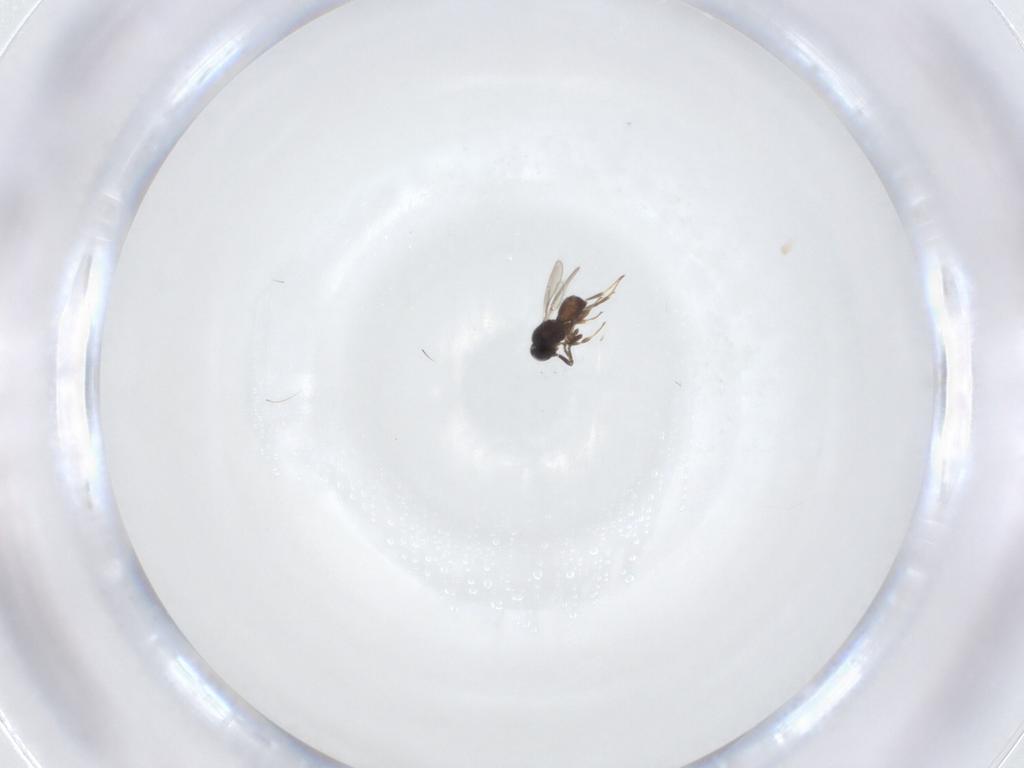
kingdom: Animalia
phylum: Arthropoda
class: Insecta
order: Hymenoptera
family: Scelionidae
